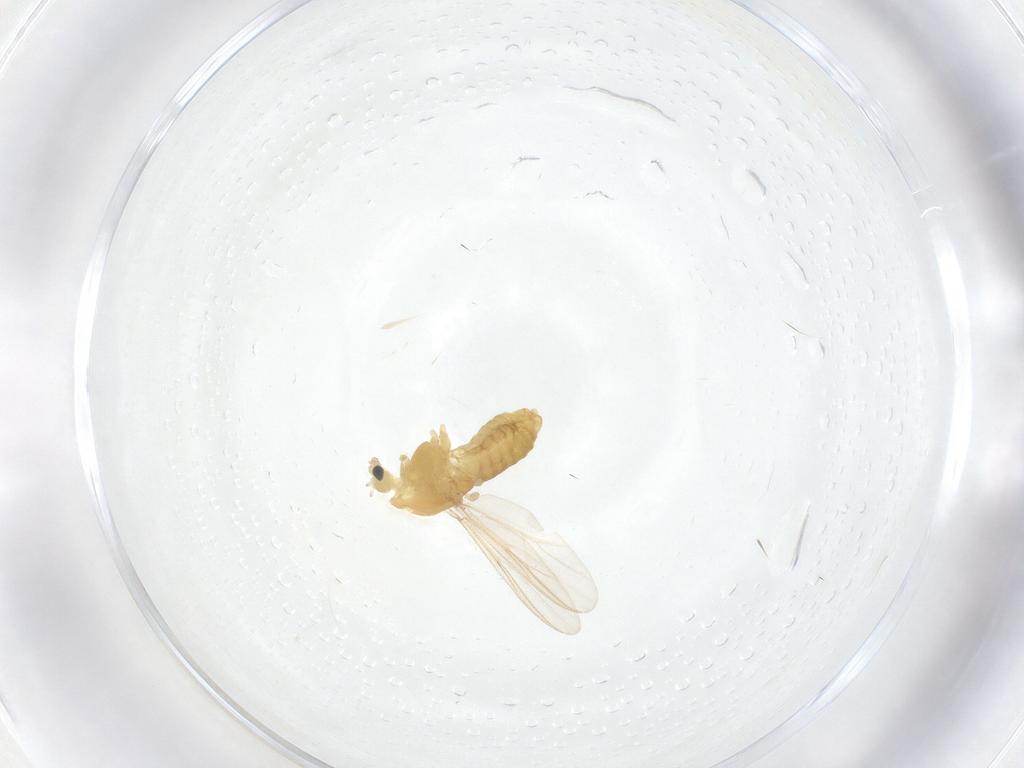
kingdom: Animalia
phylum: Arthropoda
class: Insecta
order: Diptera
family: Chironomidae
